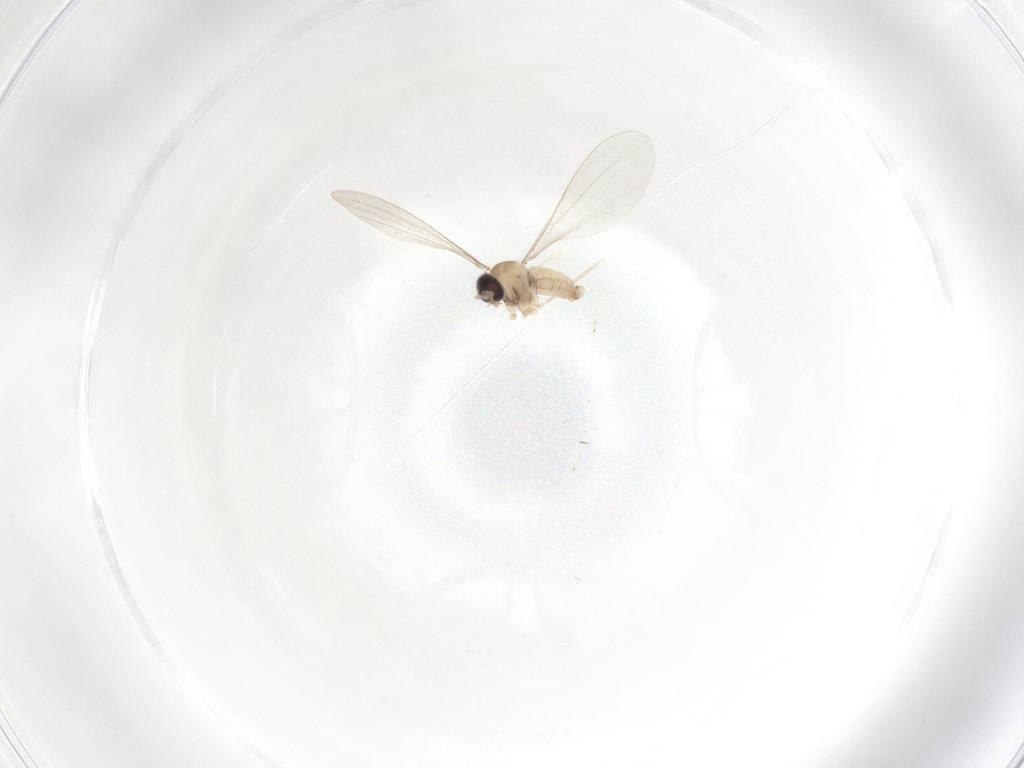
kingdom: Animalia
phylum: Arthropoda
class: Insecta
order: Diptera
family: Cecidomyiidae
